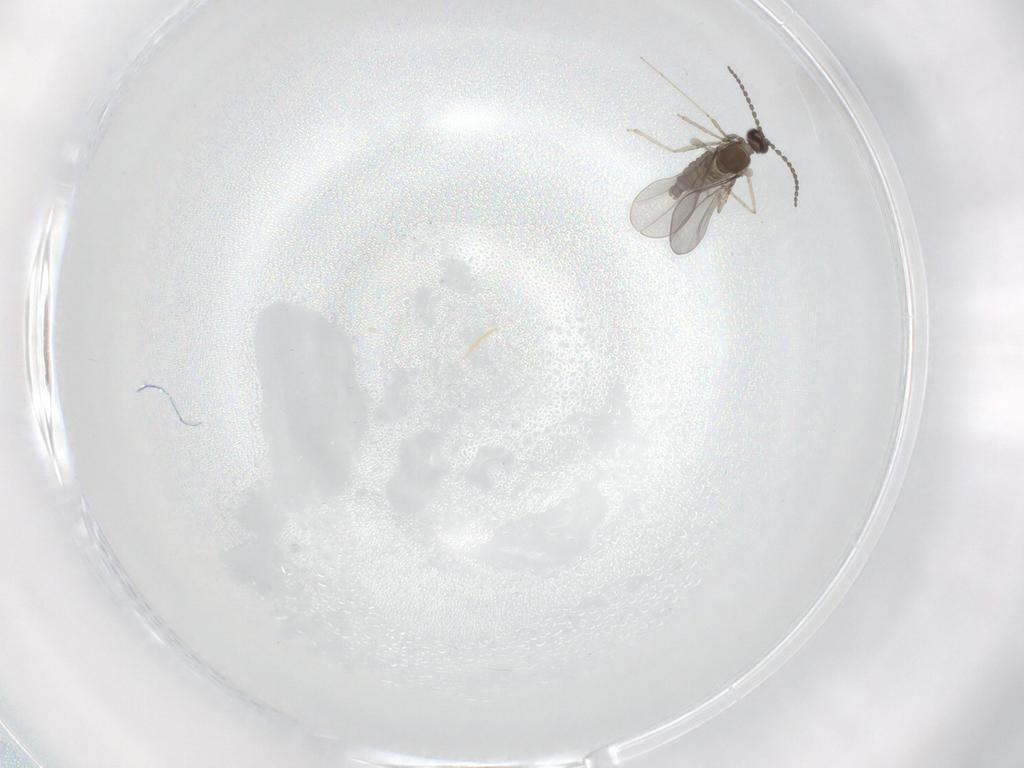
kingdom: Animalia
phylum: Arthropoda
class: Insecta
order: Diptera
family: Cecidomyiidae
